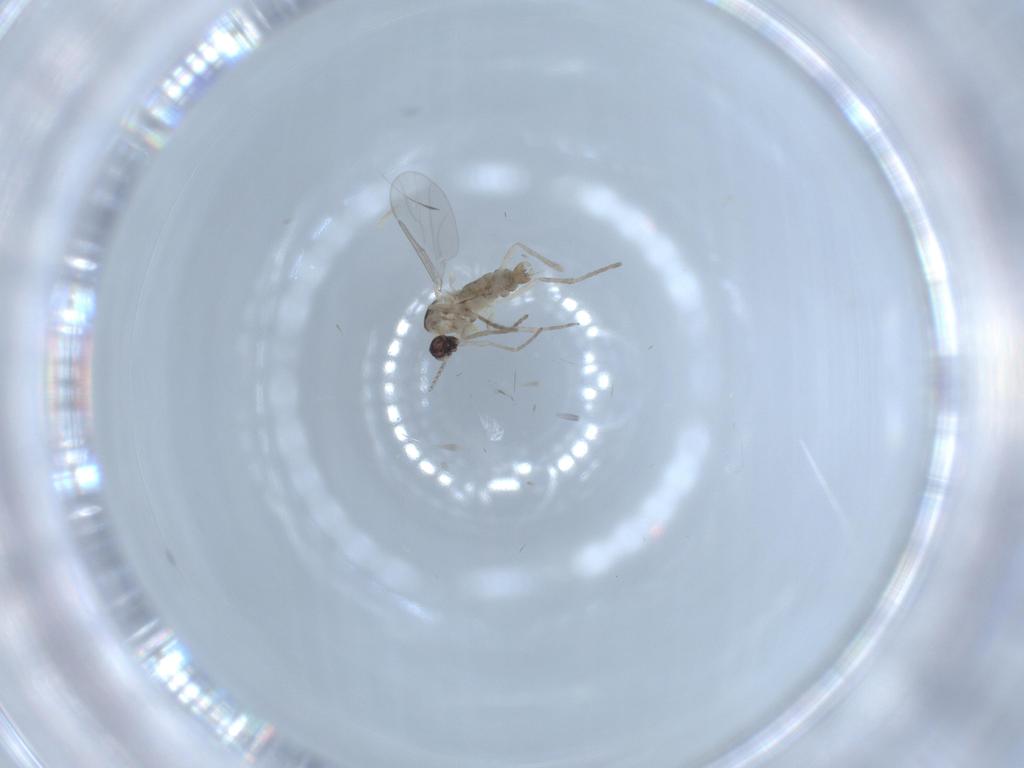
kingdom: Animalia
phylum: Arthropoda
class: Insecta
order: Diptera
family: Cecidomyiidae
